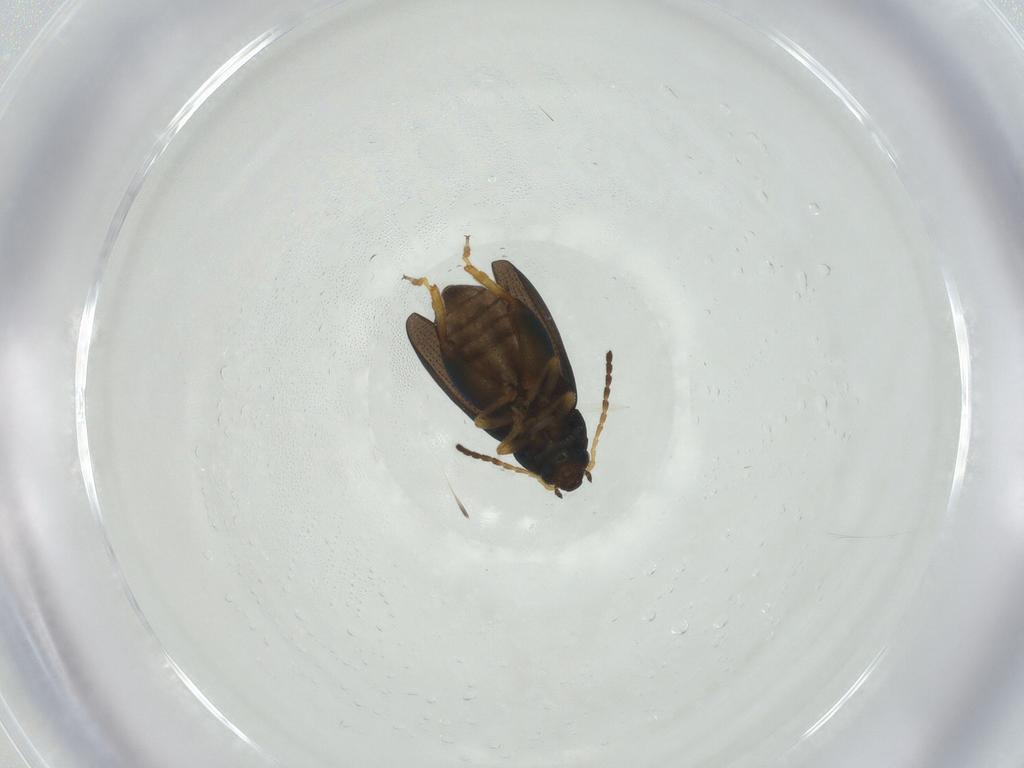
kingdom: Animalia
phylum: Arthropoda
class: Insecta
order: Coleoptera
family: Chrysomelidae
